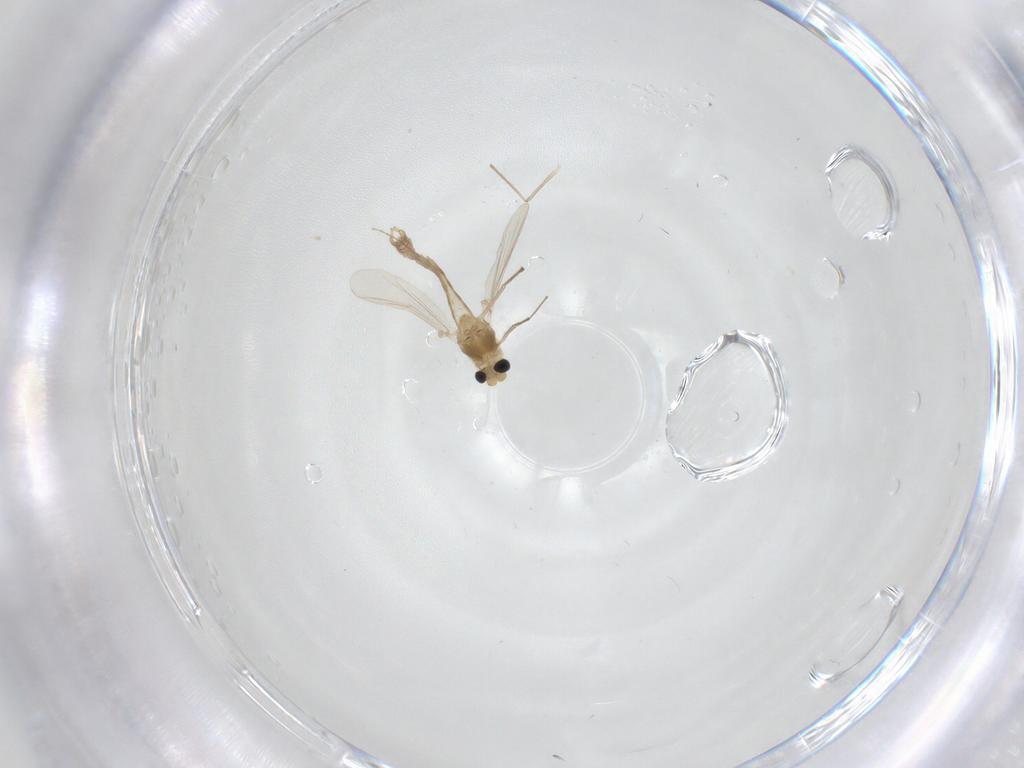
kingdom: Animalia
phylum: Arthropoda
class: Insecta
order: Diptera
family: Chironomidae
